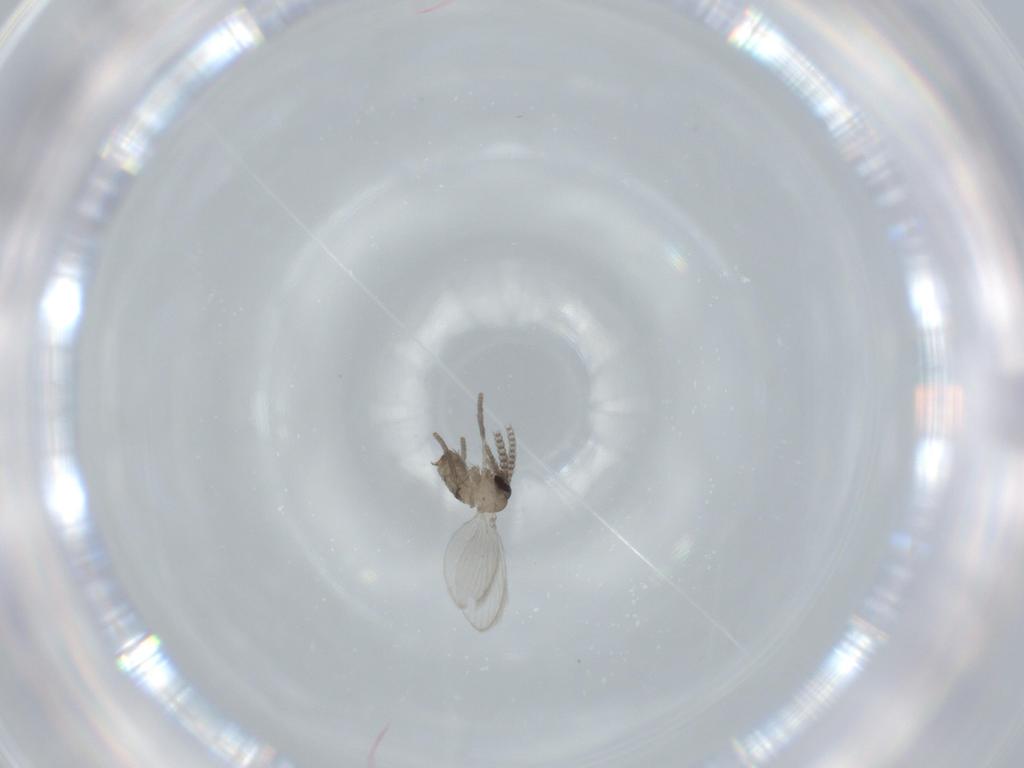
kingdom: Animalia
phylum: Arthropoda
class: Insecta
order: Diptera
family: Psychodidae
